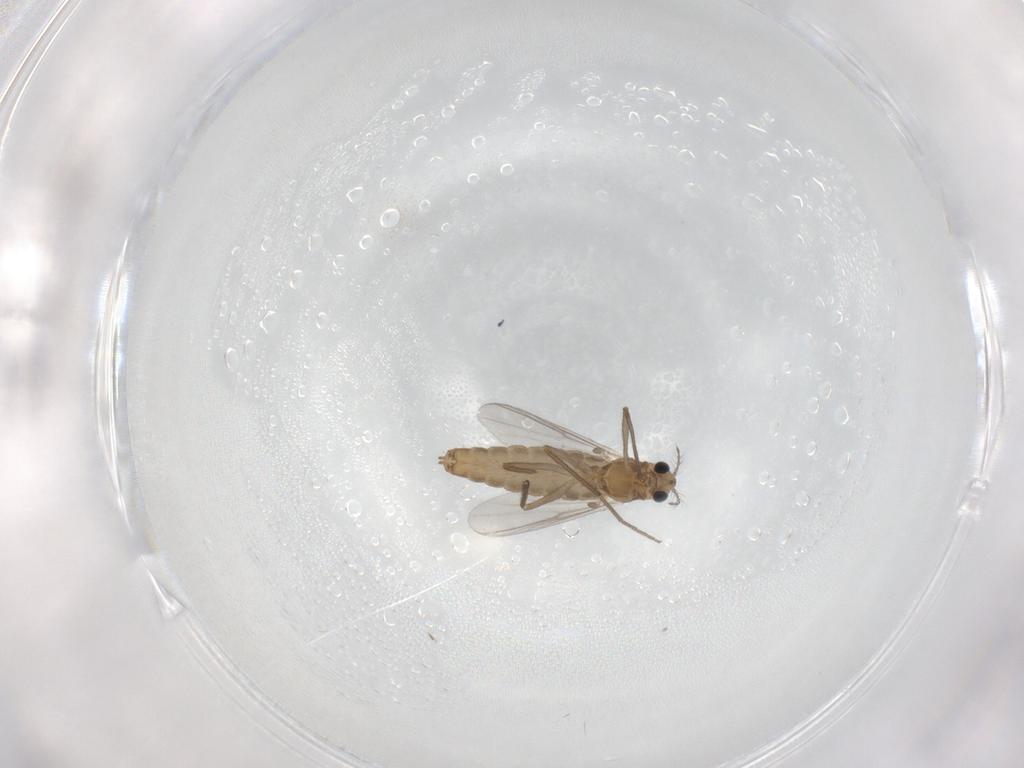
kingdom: Animalia
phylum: Arthropoda
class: Insecta
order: Diptera
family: Chironomidae
